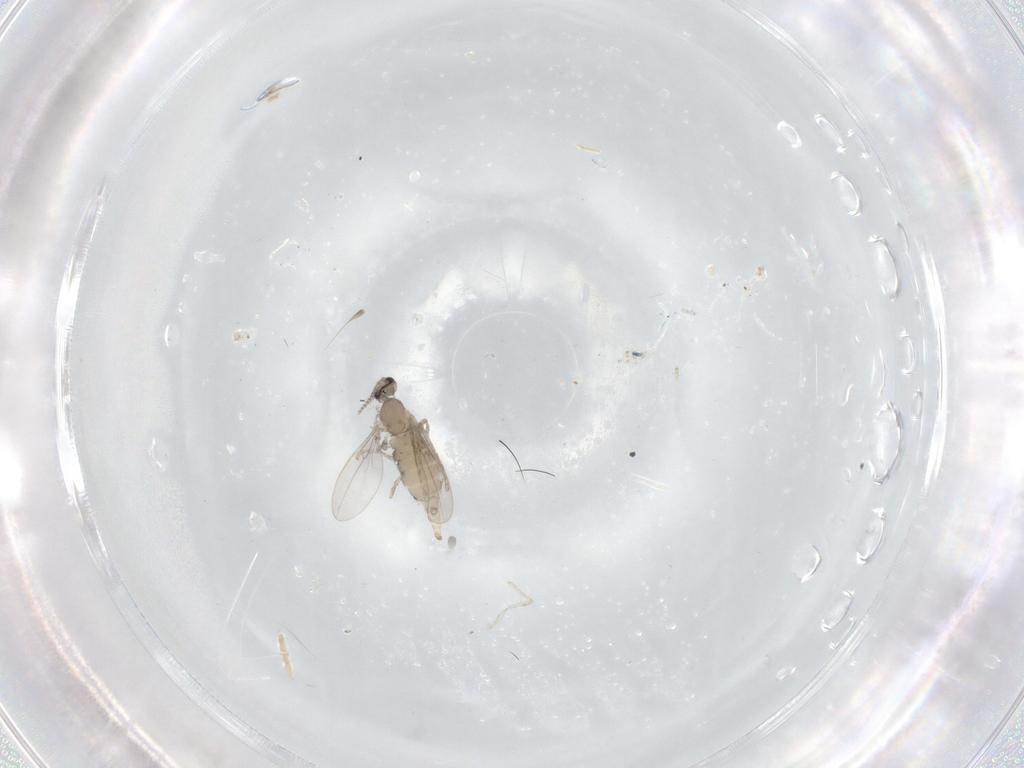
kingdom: Animalia
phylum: Arthropoda
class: Insecta
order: Diptera
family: Cecidomyiidae
